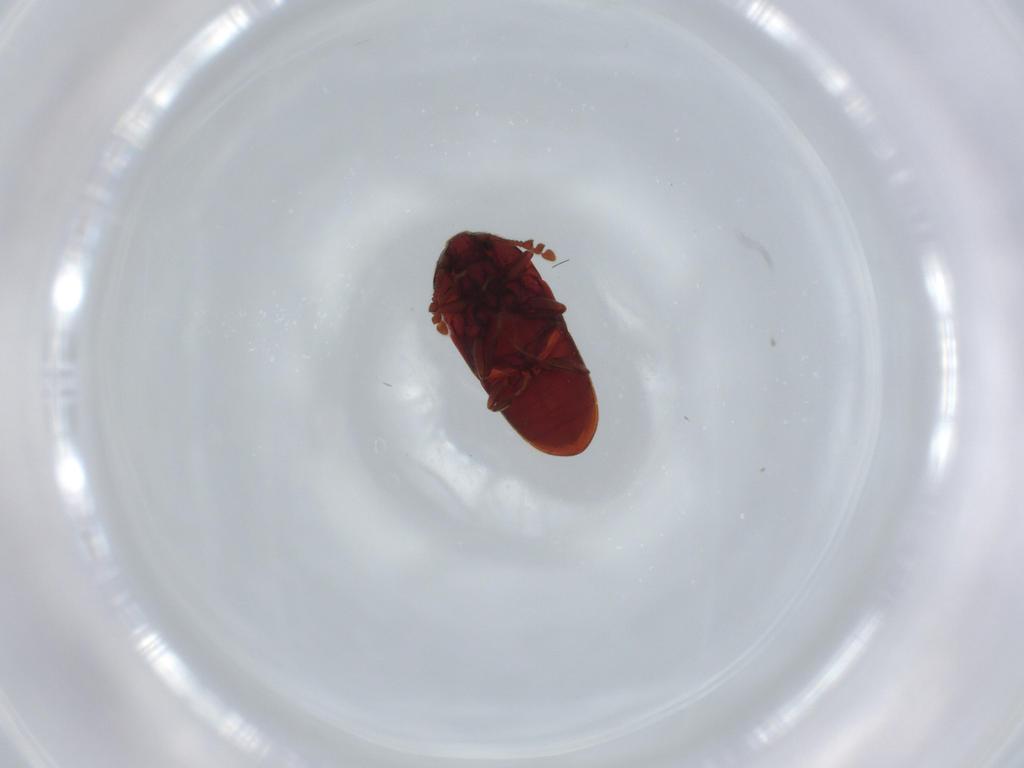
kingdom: Animalia
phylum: Arthropoda
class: Insecta
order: Coleoptera
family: Throscidae
